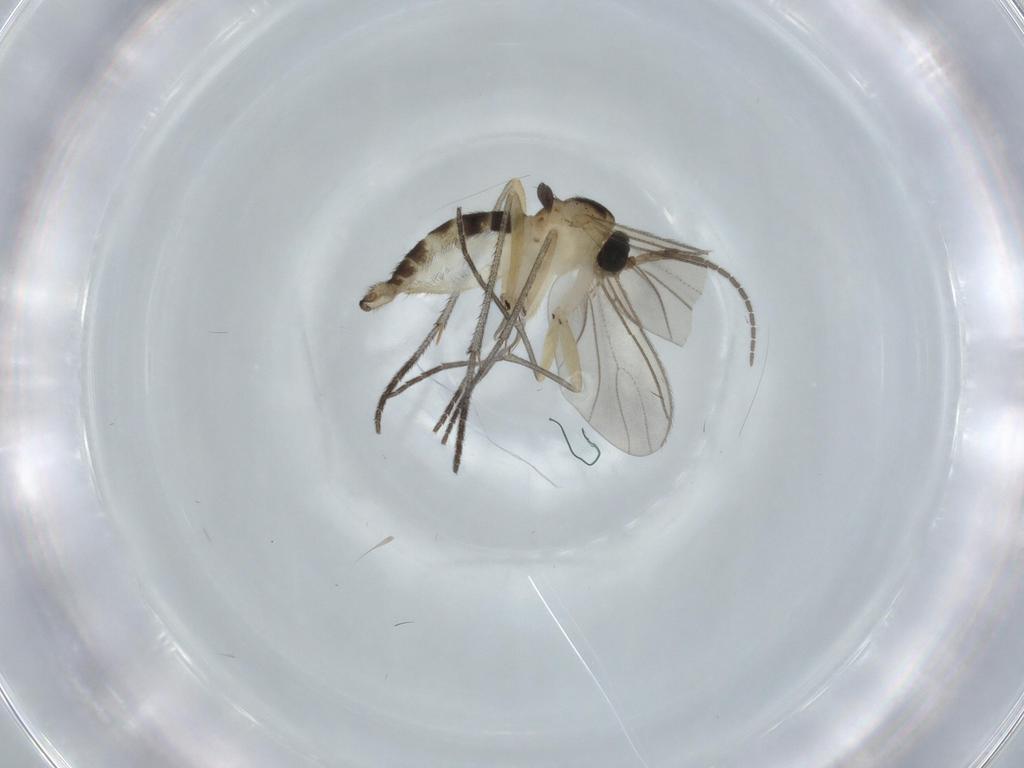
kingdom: Animalia
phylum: Arthropoda
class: Insecta
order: Diptera
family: Sciaridae
